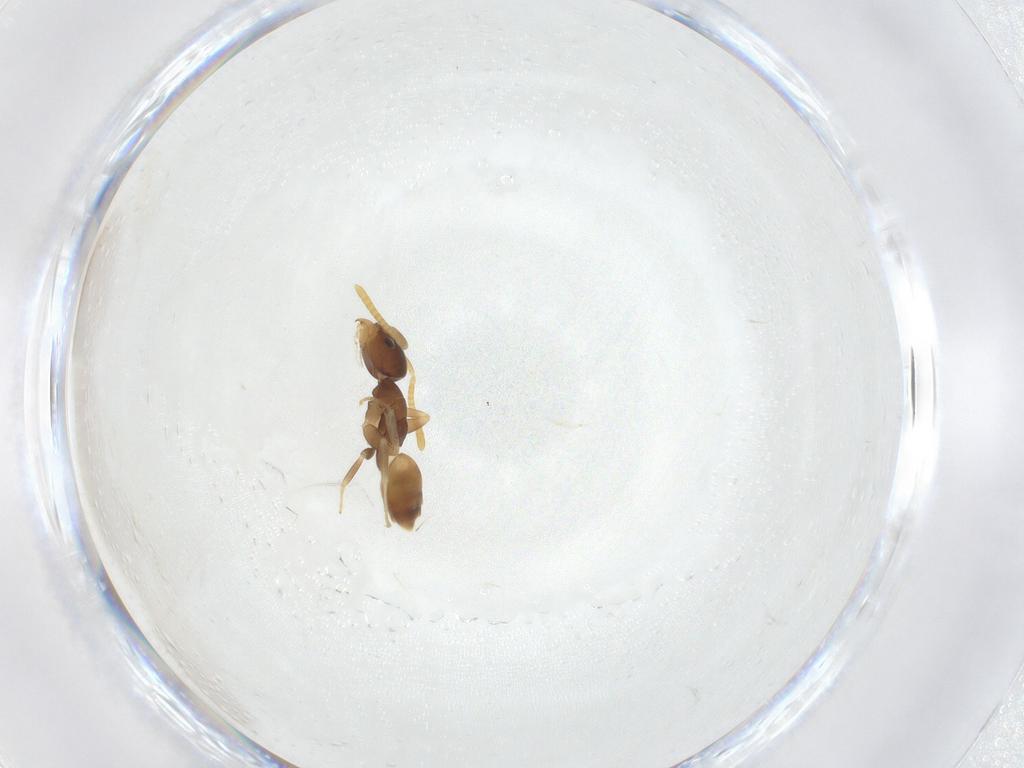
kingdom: Animalia
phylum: Arthropoda
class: Insecta
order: Hymenoptera
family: Formicidae
